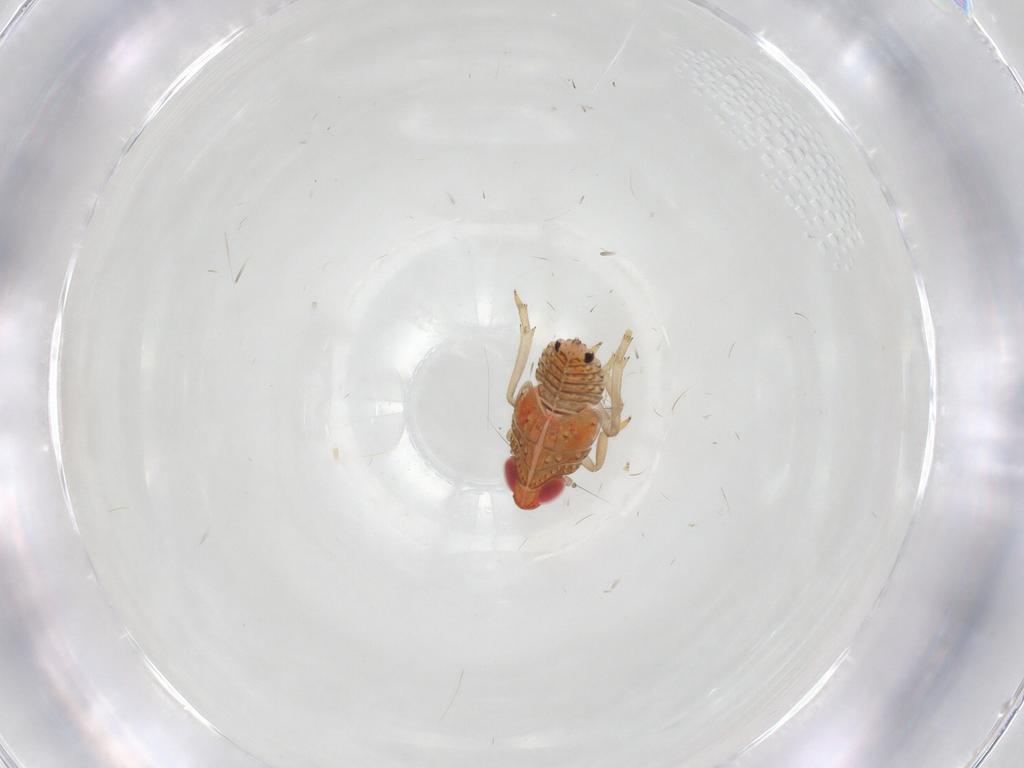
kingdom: Animalia
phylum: Arthropoda
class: Insecta
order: Hemiptera
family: Fulgoroidea_incertae_sedis
